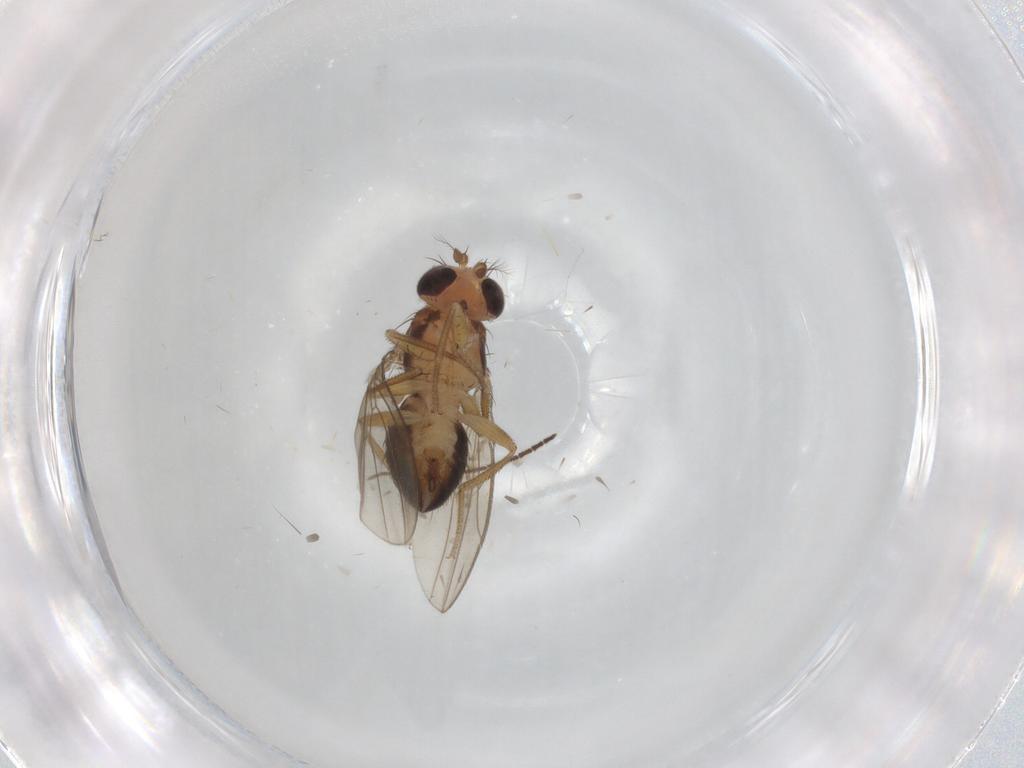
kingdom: Animalia
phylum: Arthropoda
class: Insecta
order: Diptera
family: Drosophilidae
